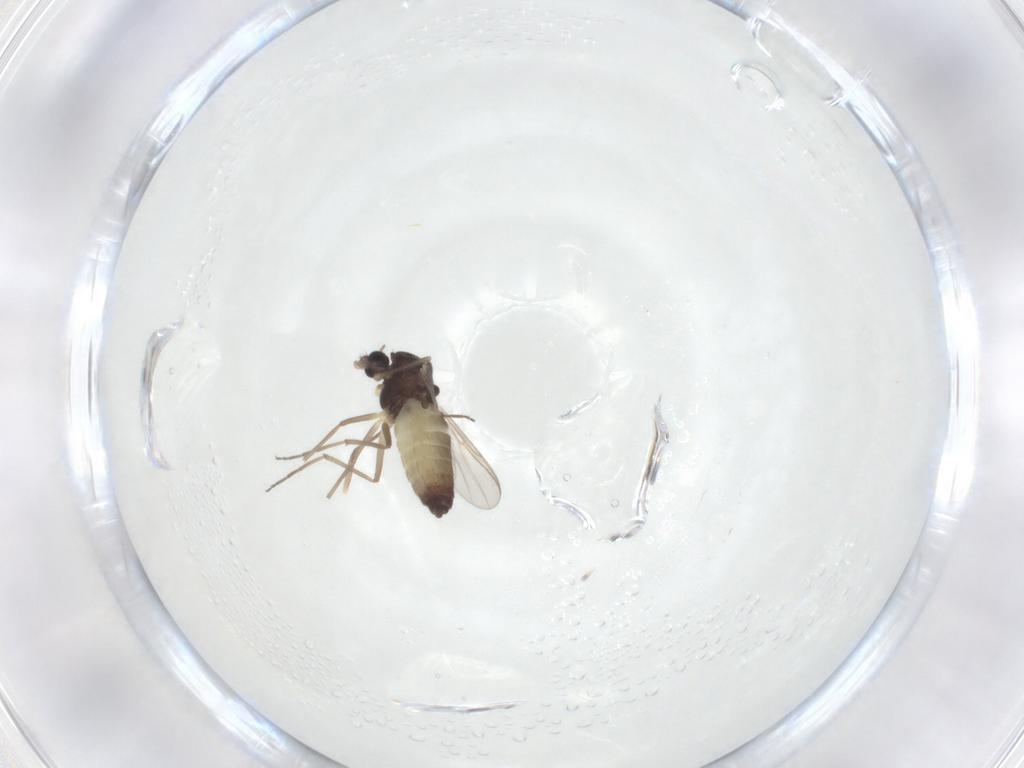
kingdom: Animalia
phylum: Arthropoda
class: Insecta
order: Diptera
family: Chironomidae
